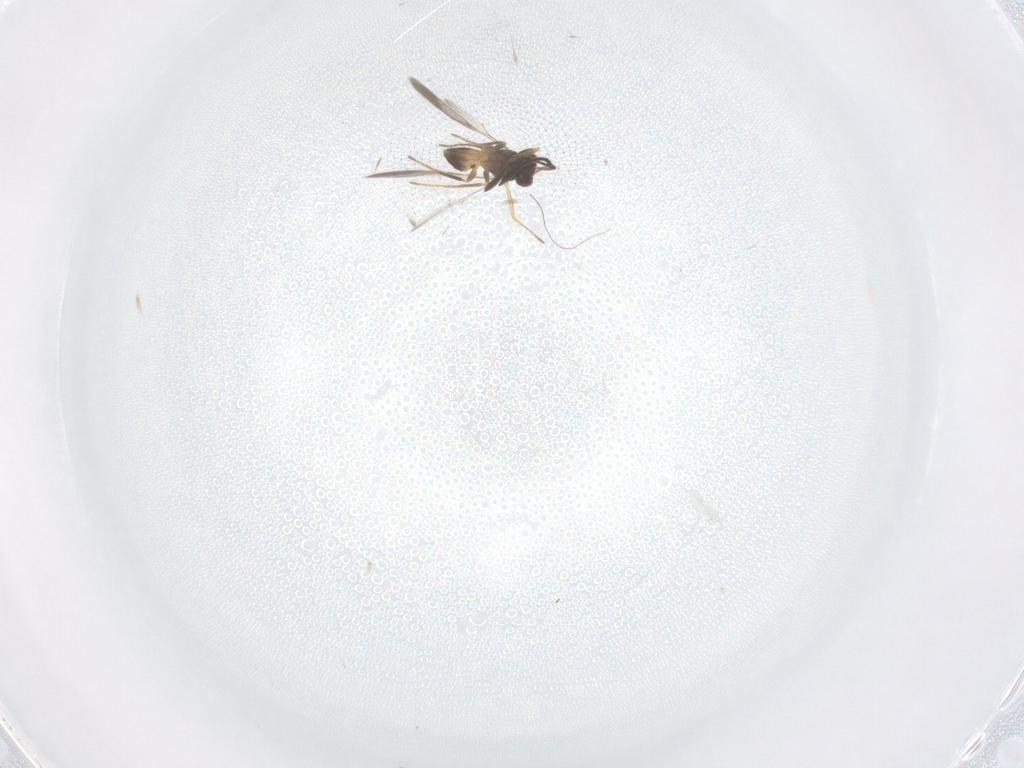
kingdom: Animalia
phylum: Arthropoda
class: Insecta
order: Hymenoptera
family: Mymaridae
